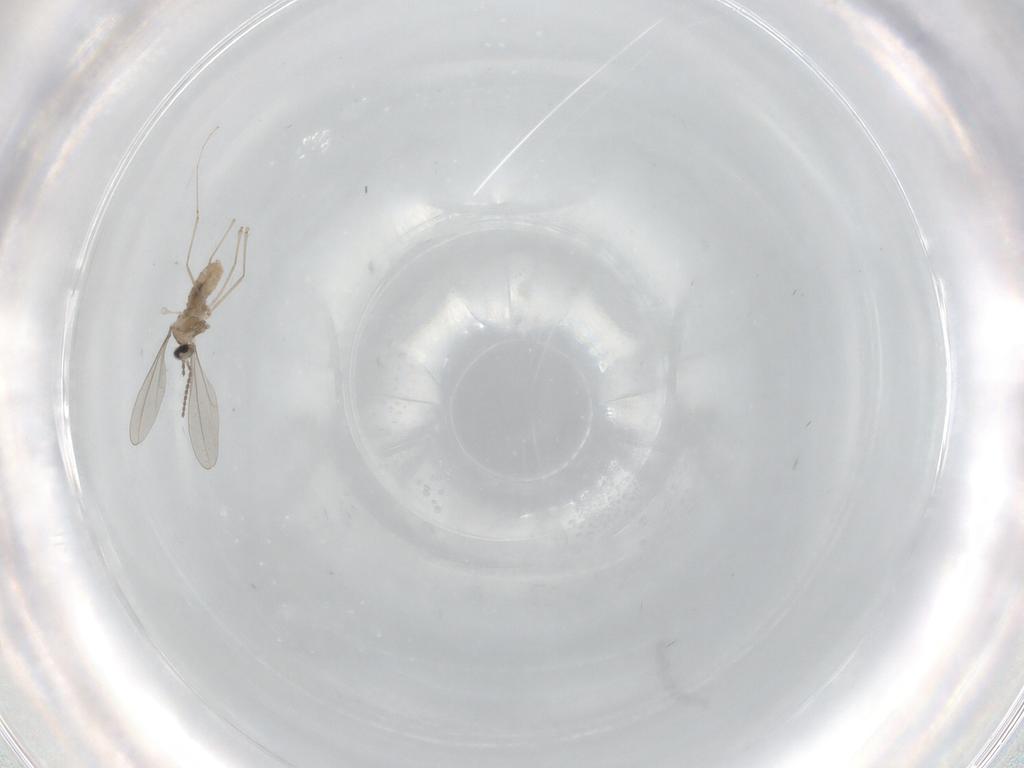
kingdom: Animalia
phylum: Arthropoda
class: Insecta
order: Diptera
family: Cecidomyiidae
